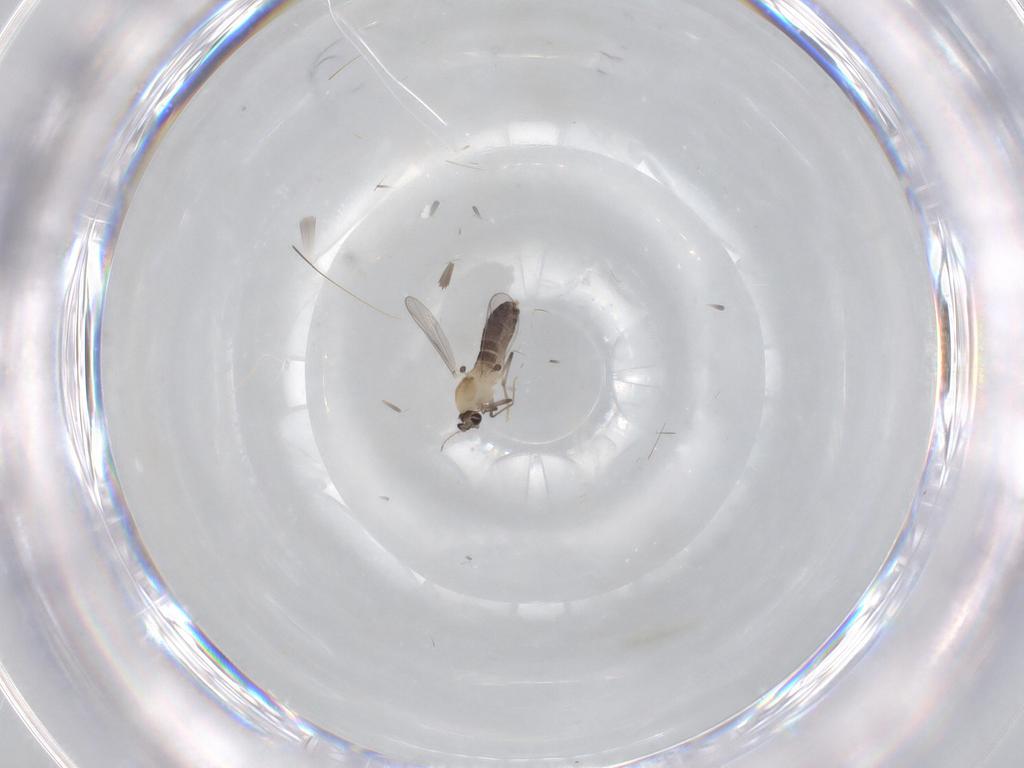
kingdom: Animalia
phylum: Arthropoda
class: Insecta
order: Diptera
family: Chironomidae
